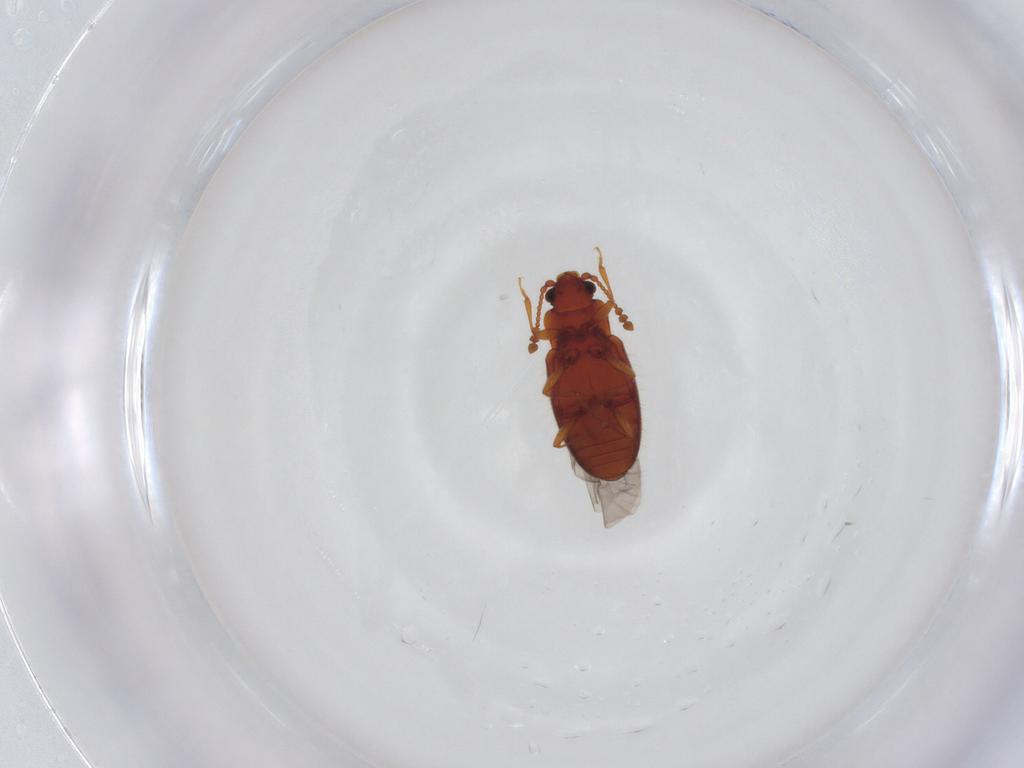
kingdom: Animalia
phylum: Arthropoda
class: Insecta
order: Coleoptera
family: Cryptophagidae
